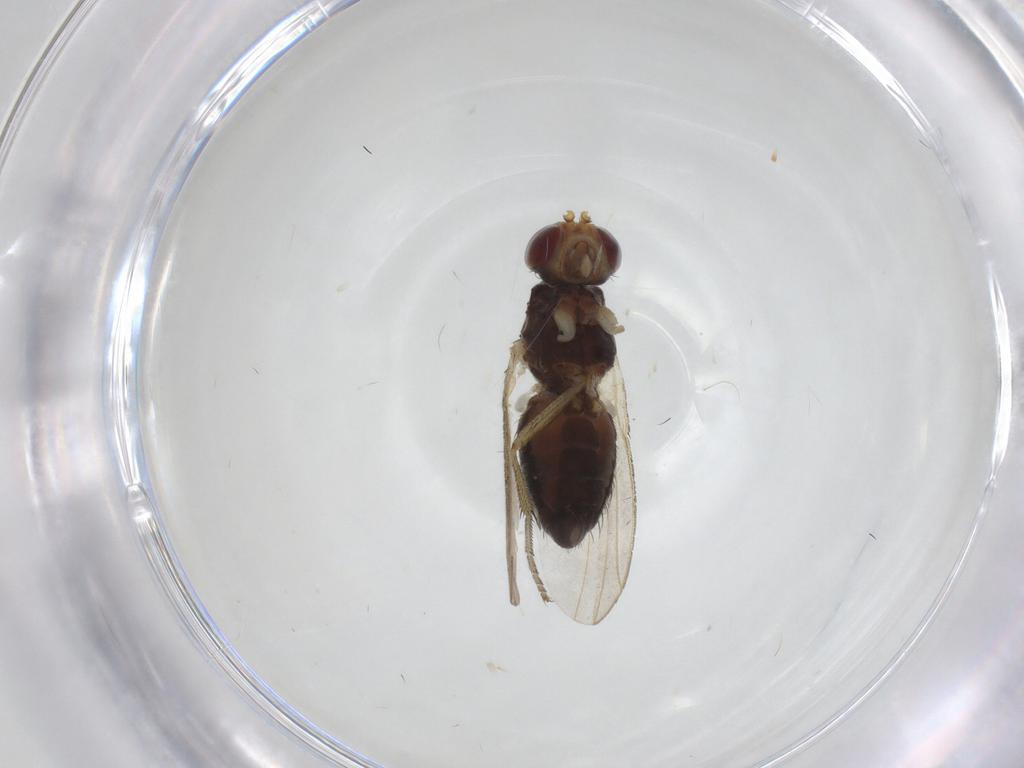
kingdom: Animalia
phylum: Arthropoda
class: Insecta
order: Diptera
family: Heleomyzidae
